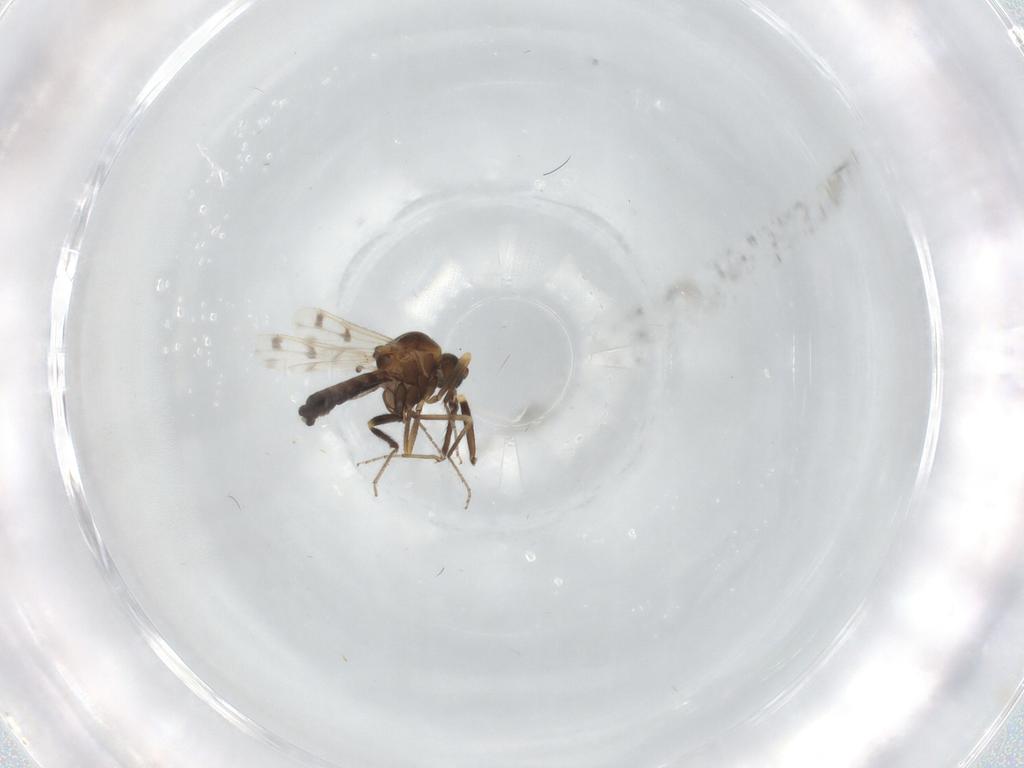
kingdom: Animalia
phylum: Arthropoda
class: Insecta
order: Diptera
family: Ceratopogonidae
